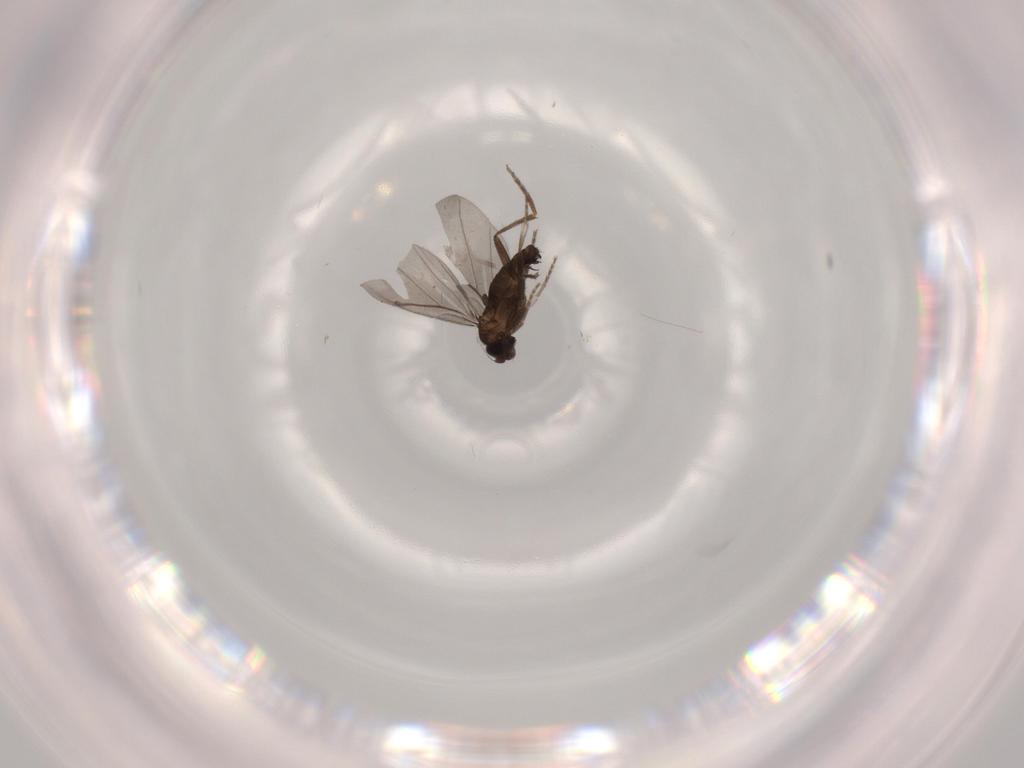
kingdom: Animalia
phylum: Arthropoda
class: Insecta
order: Diptera
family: Phoridae
